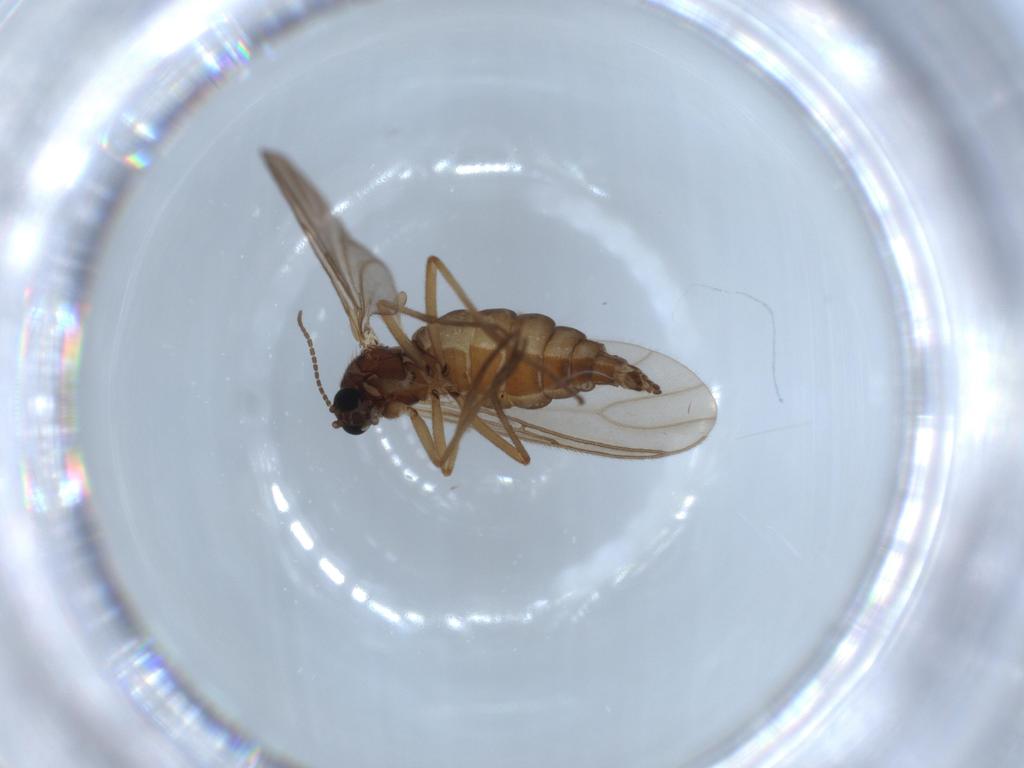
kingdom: Animalia
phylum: Arthropoda
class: Insecta
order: Diptera
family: Sciaridae
